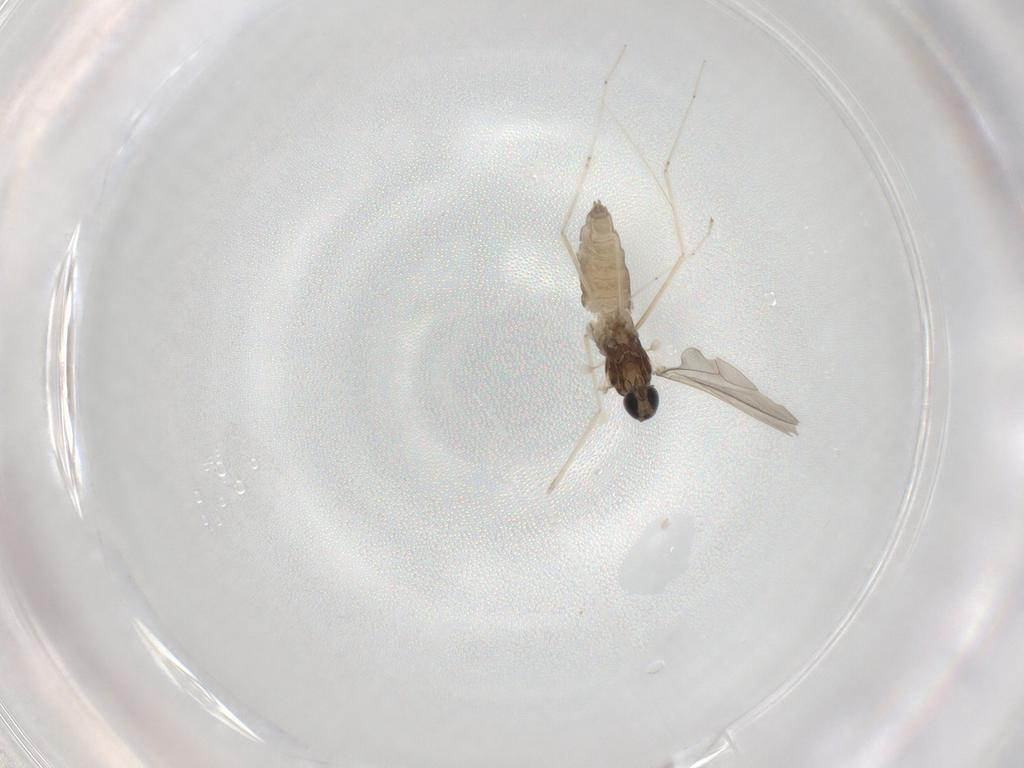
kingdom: Animalia
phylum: Arthropoda
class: Insecta
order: Diptera
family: Cecidomyiidae
